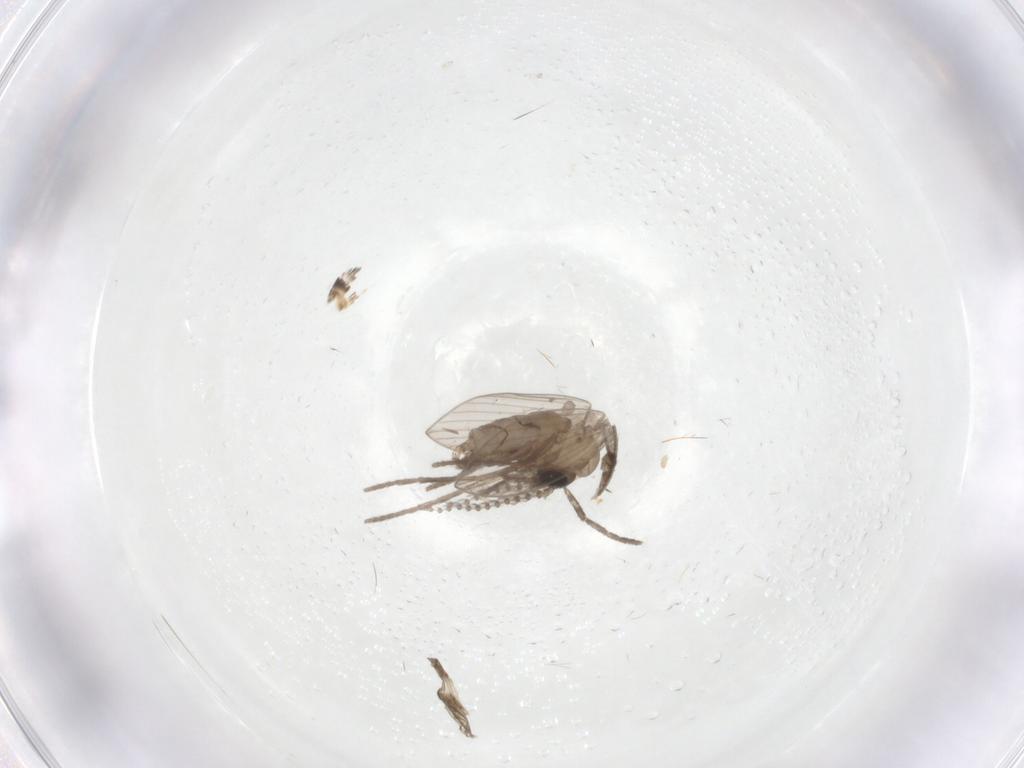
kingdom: Animalia
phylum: Arthropoda
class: Insecta
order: Diptera
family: Psychodidae
